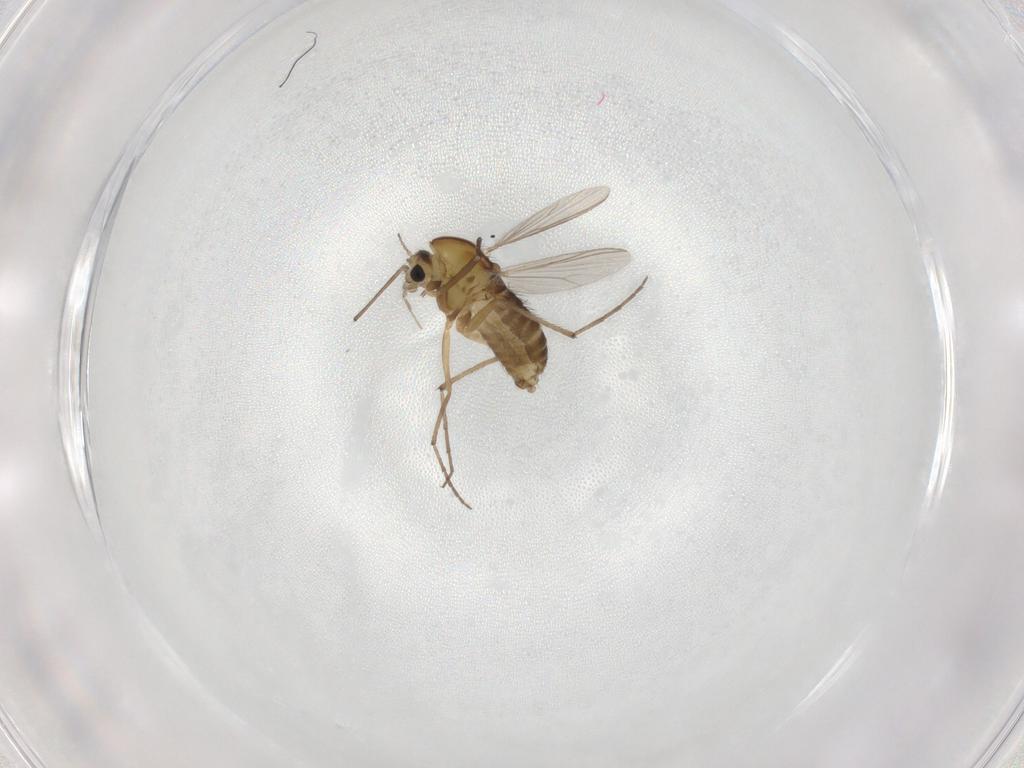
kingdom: Animalia
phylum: Arthropoda
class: Insecta
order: Diptera
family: Chironomidae
